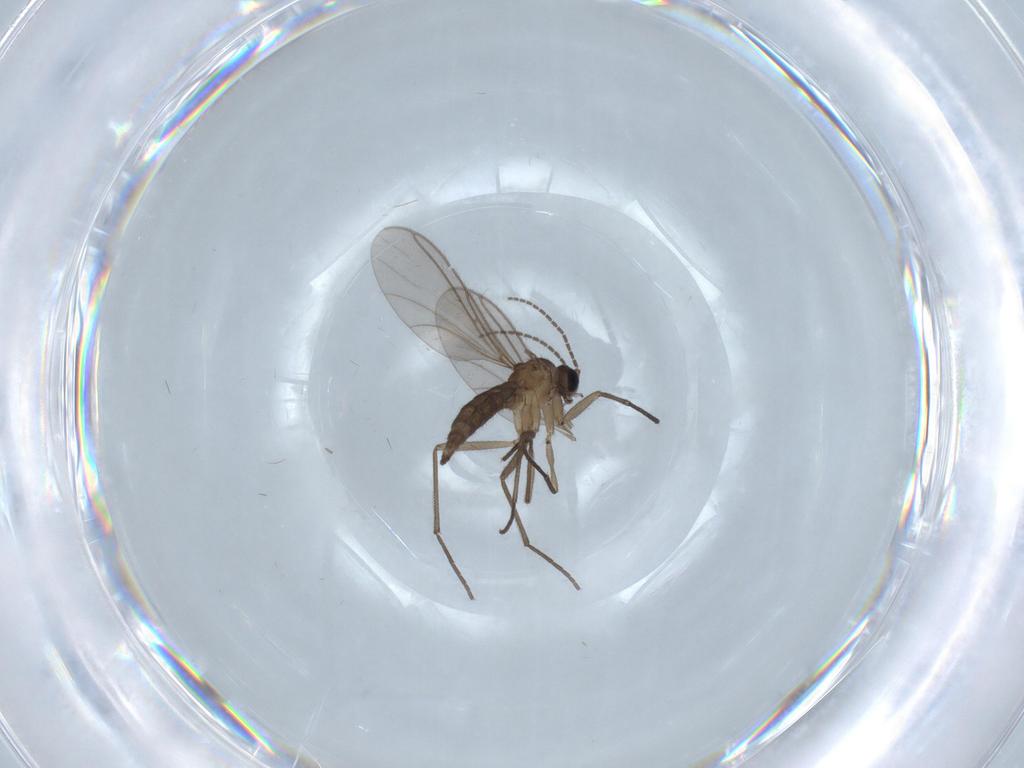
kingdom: Animalia
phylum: Arthropoda
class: Insecta
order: Diptera
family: Sciaridae
